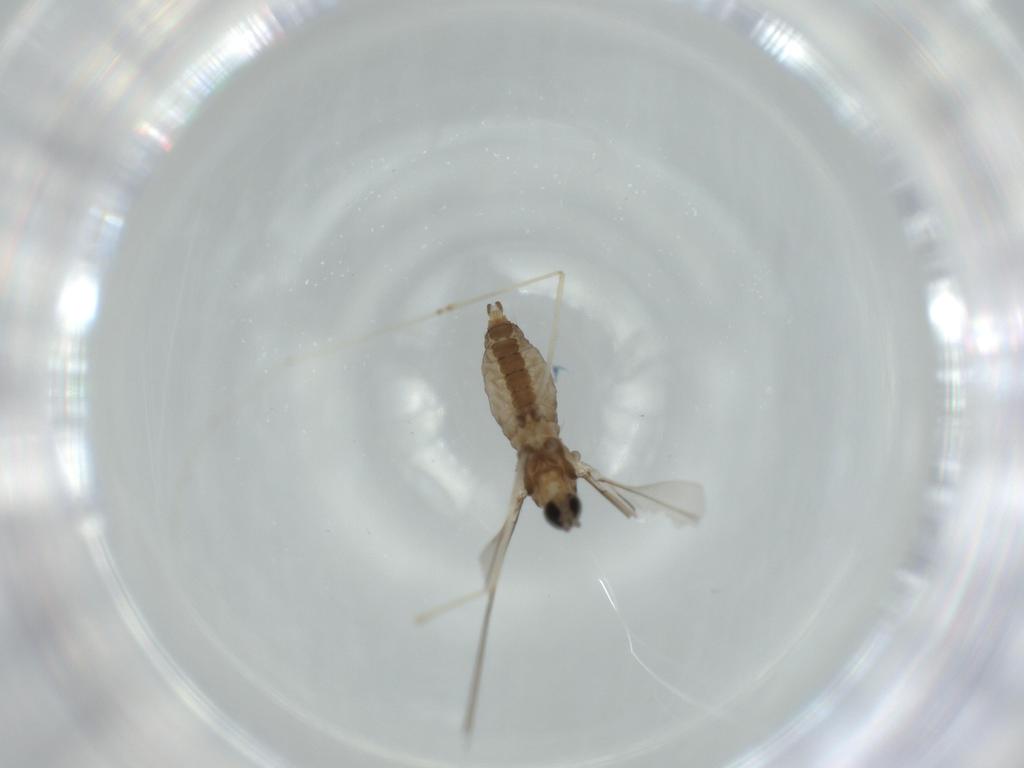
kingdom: Animalia
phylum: Arthropoda
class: Insecta
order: Diptera
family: Cecidomyiidae
